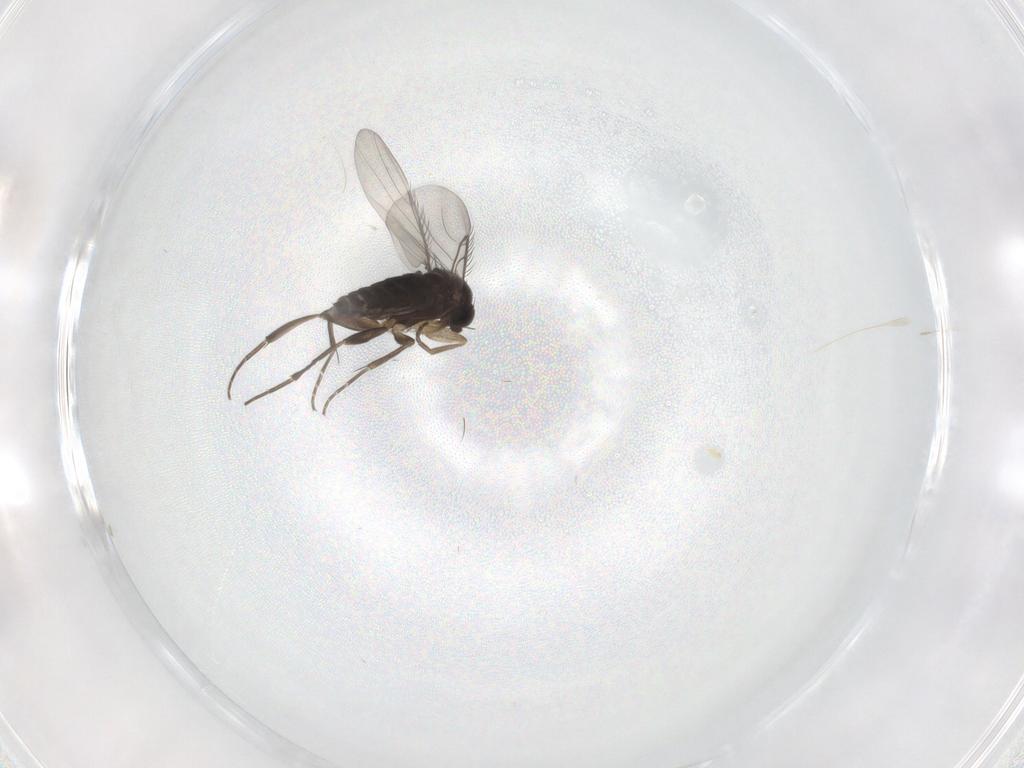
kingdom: Animalia
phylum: Arthropoda
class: Insecta
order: Diptera
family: Phoridae
